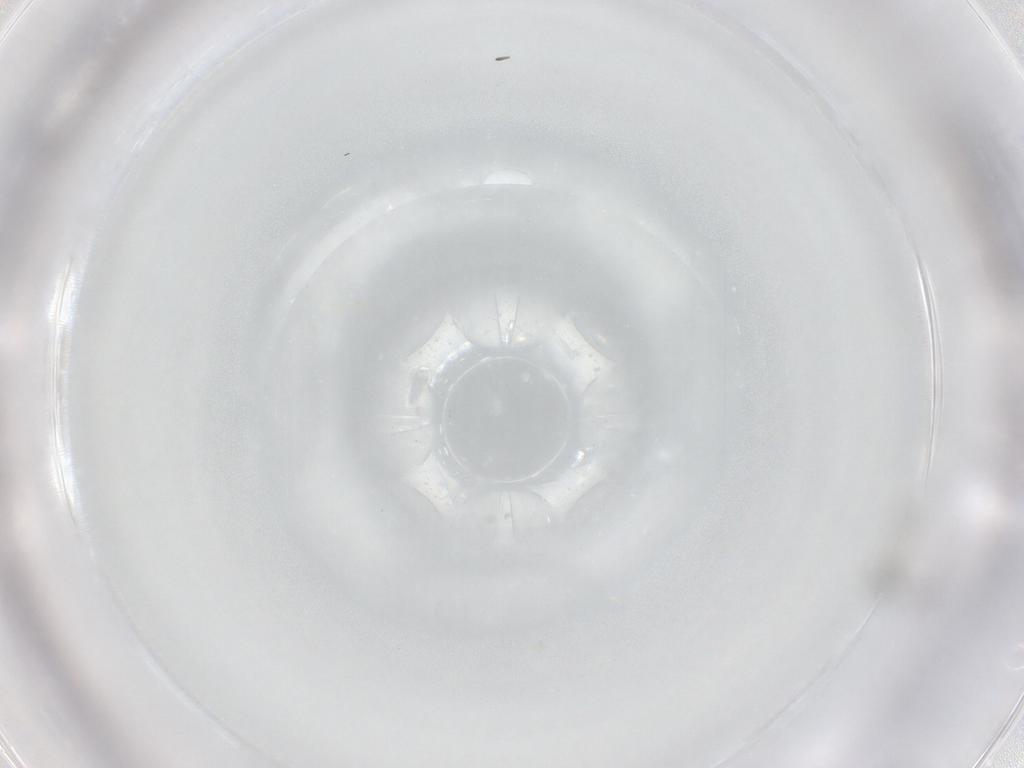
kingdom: Animalia
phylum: Arthropoda
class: Insecta
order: Diptera
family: Cecidomyiidae
